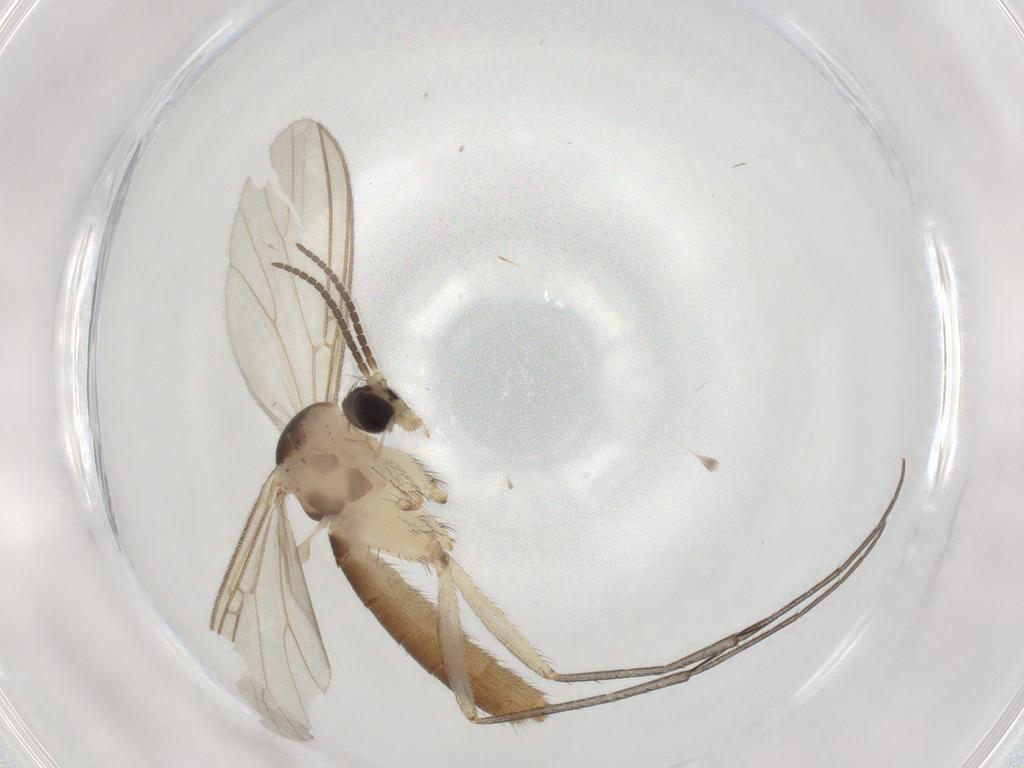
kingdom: Animalia
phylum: Arthropoda
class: Insecta
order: Diptera
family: Mycetophilidae
